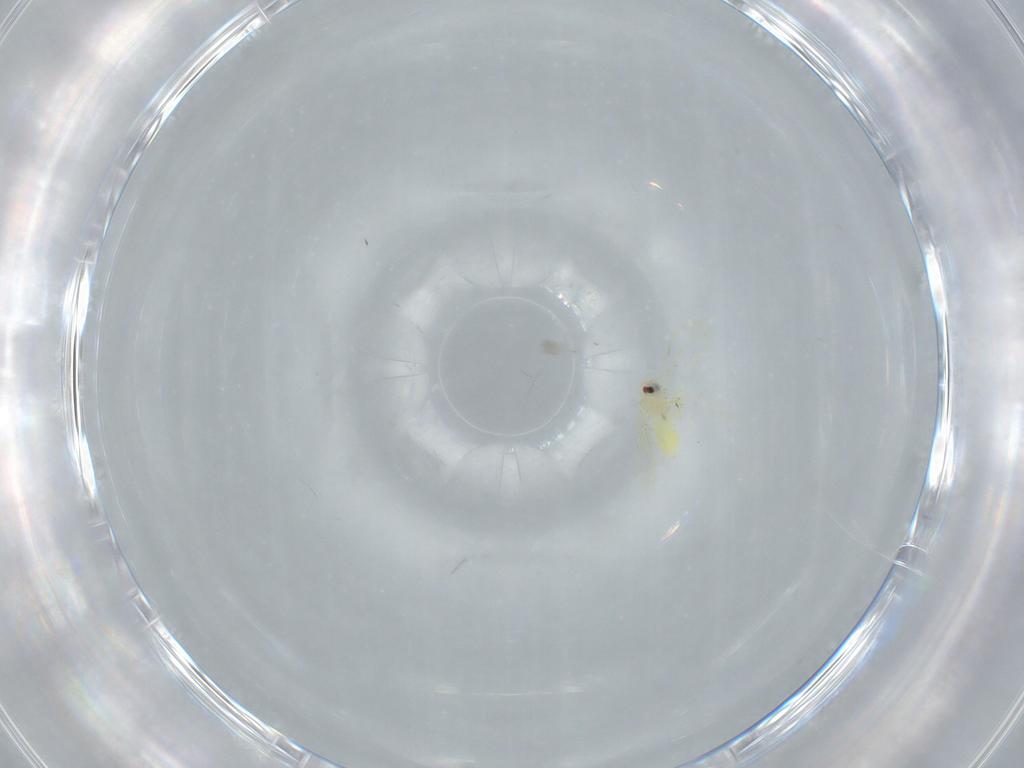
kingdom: Animalia
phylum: Arthropoda
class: Insecta
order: Hemiptera
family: Aleyrodidae
